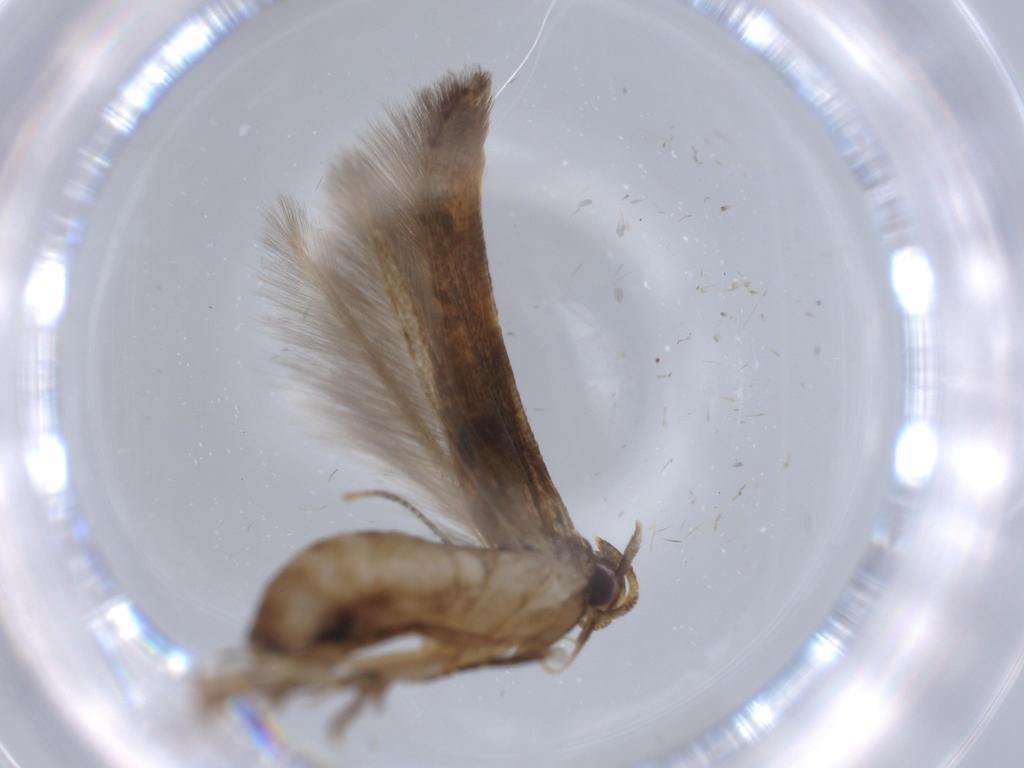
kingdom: Animalia
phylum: Arthropoda
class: Insecta
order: Lepidoptera
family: Cosmopterigidae
